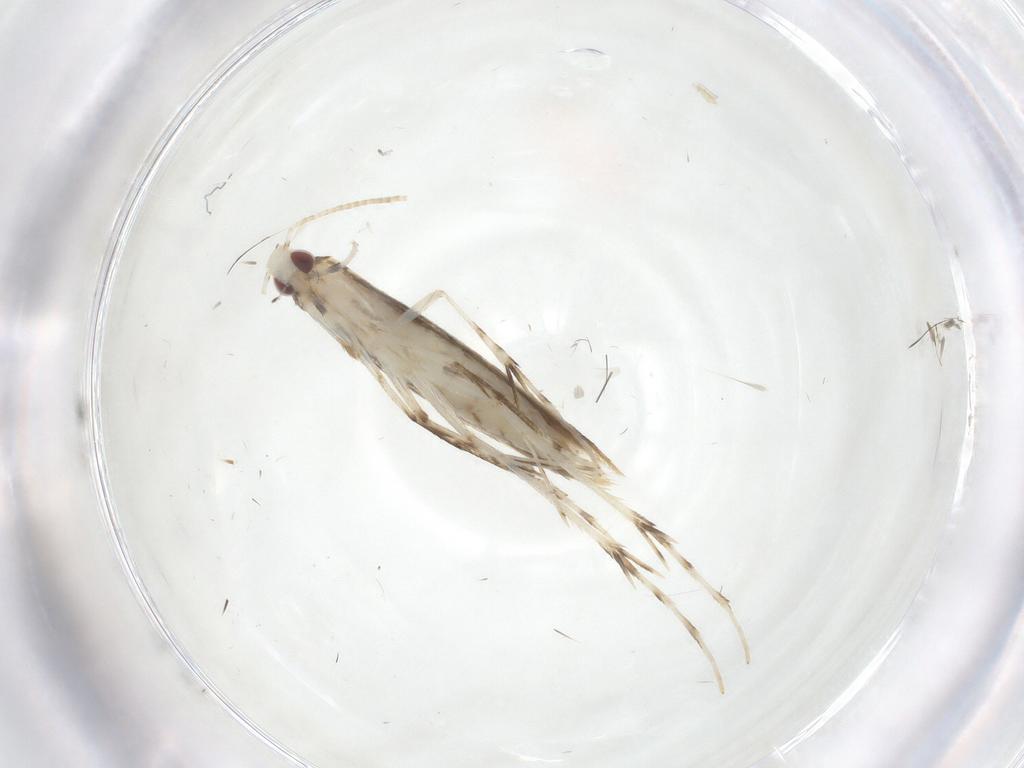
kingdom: Animalia
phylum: Arthropoda
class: Insecta
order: Lepidoptera
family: Gracillariidae
